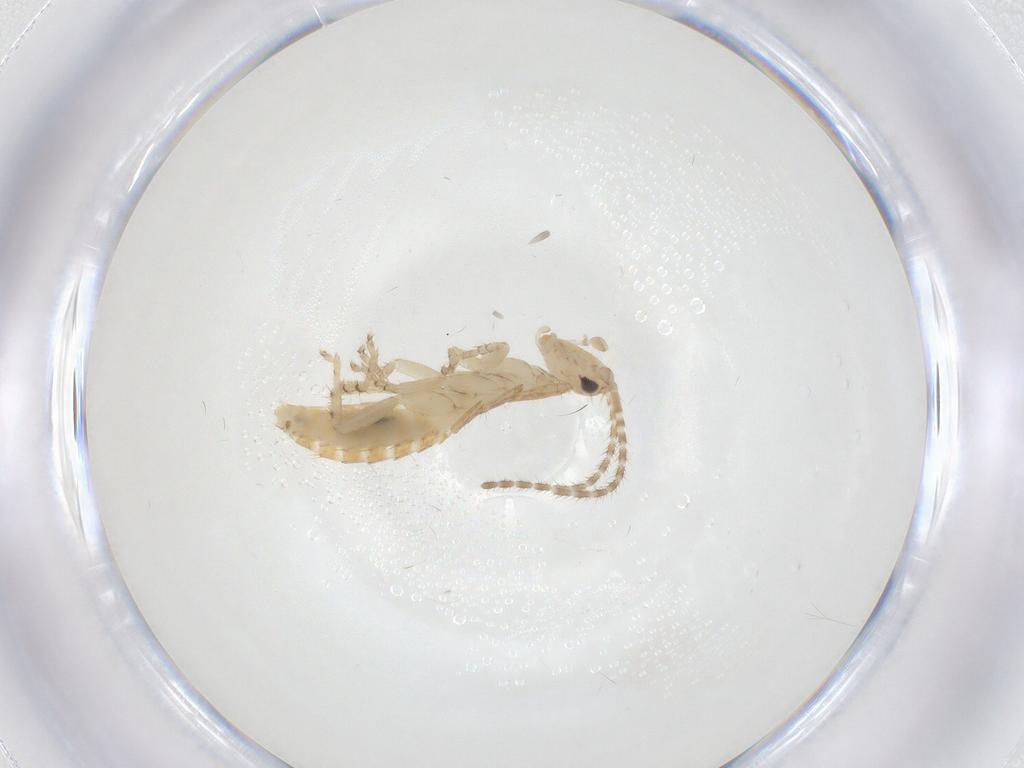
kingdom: Animalia
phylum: Arthropoda
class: Insecta
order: Blattodea
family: Ectobiidae
